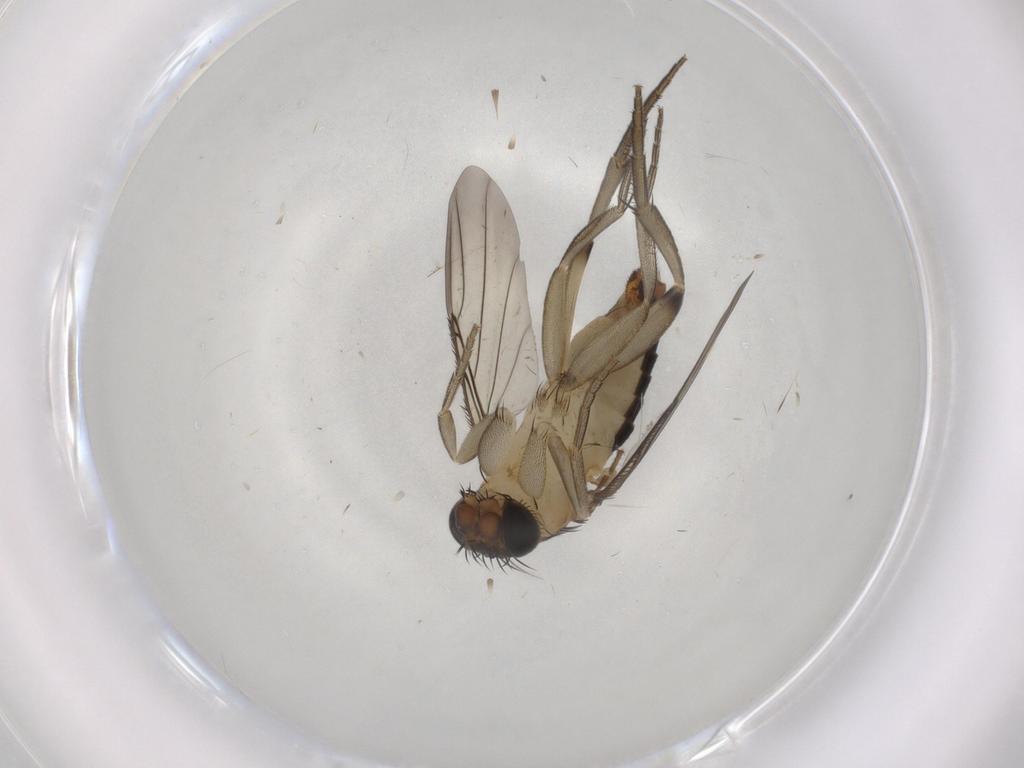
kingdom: Animalia
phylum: Arthropoda
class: Insecta
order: Diptera
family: Phoridae
